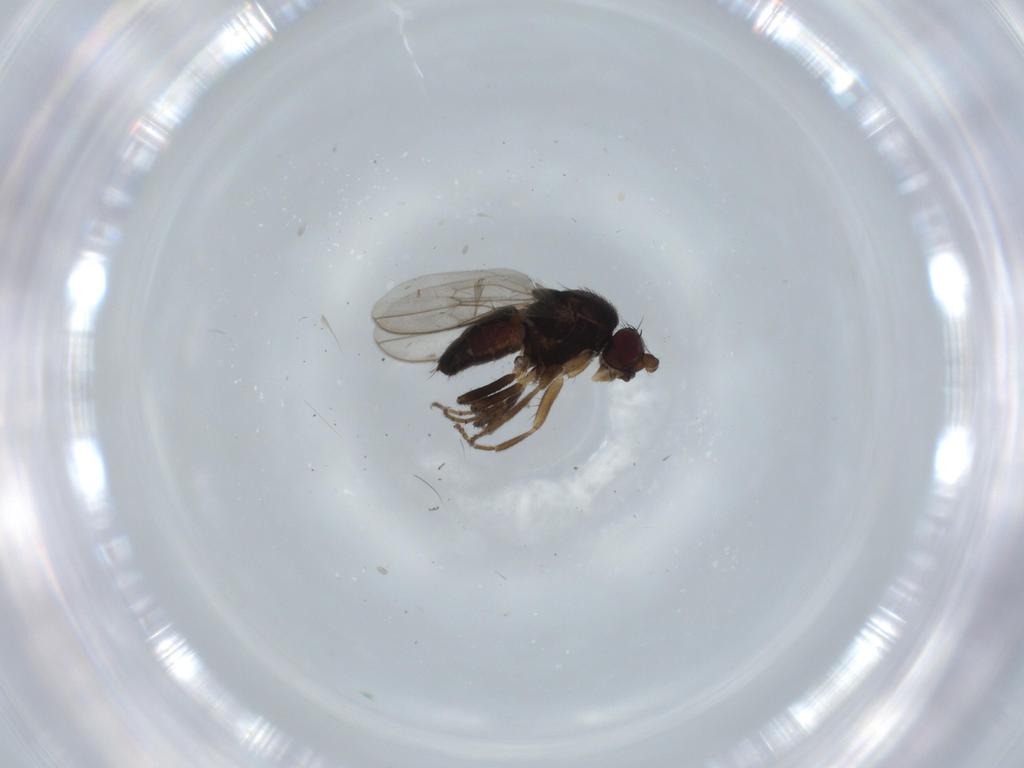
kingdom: Animalia
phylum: Arthropoda
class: Insecta
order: Diptera
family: Sphaeroceridae
